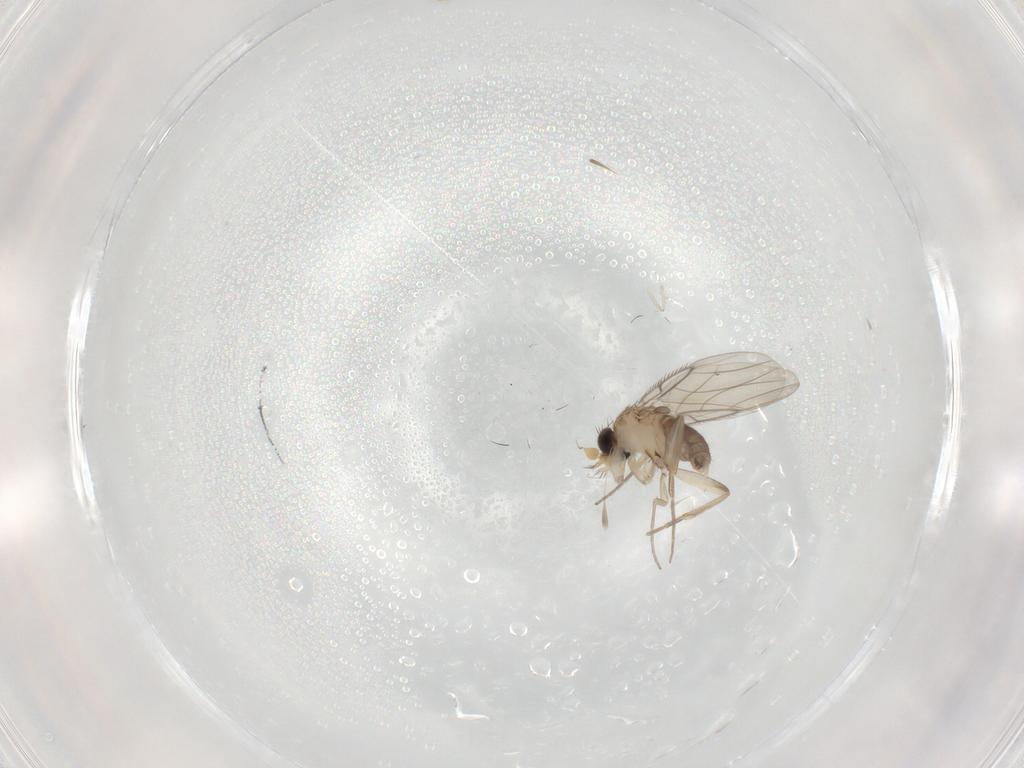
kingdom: Animalia
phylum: Arthropoda
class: Insecta
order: Diptera
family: Phoridae
